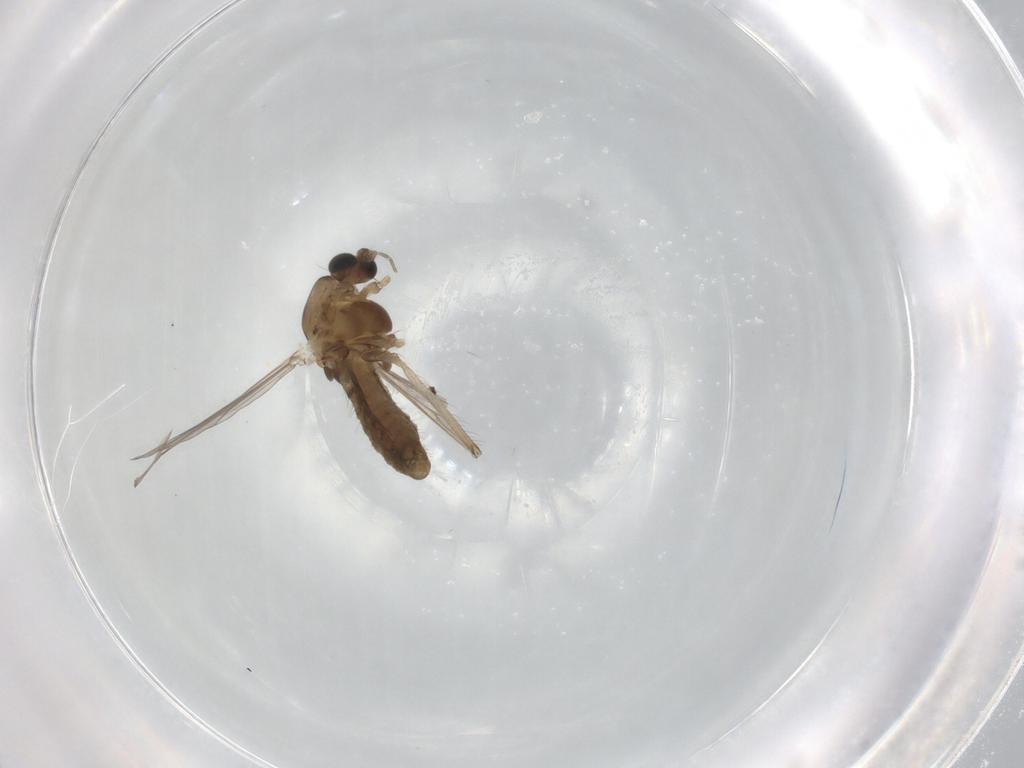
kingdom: Animalia
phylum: Arthropoda
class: Insecta
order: Diptera
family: Chironomidae
